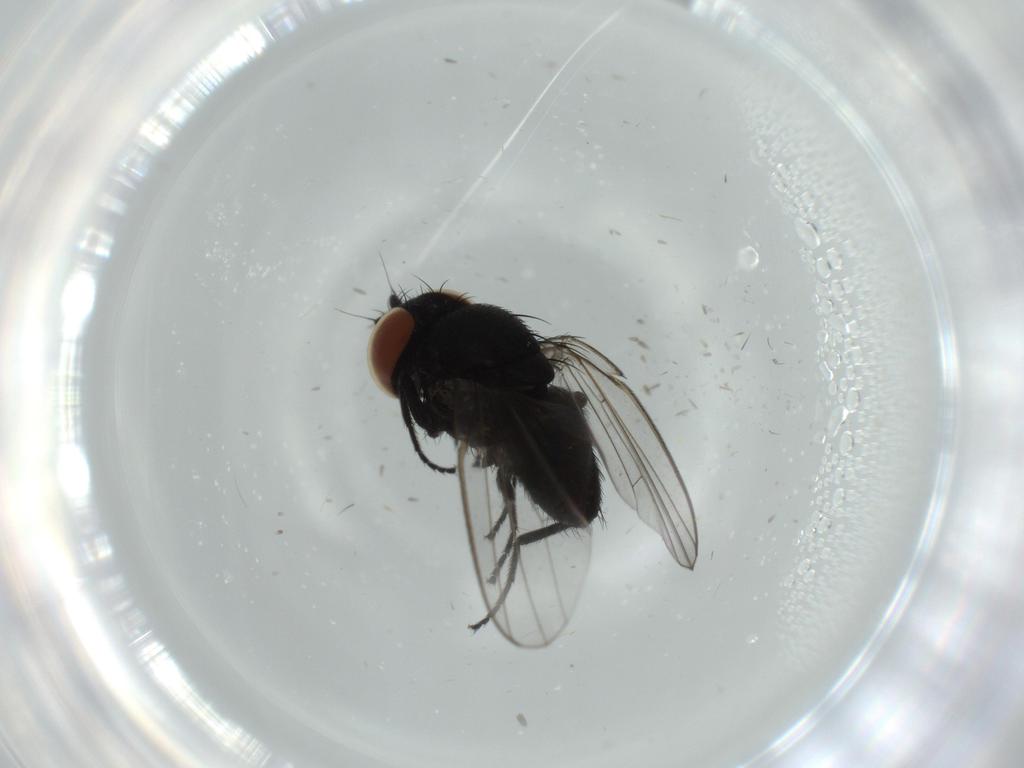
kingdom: Animalia
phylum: Arthropoda
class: Insecta
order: Diptera
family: Milichiidae
